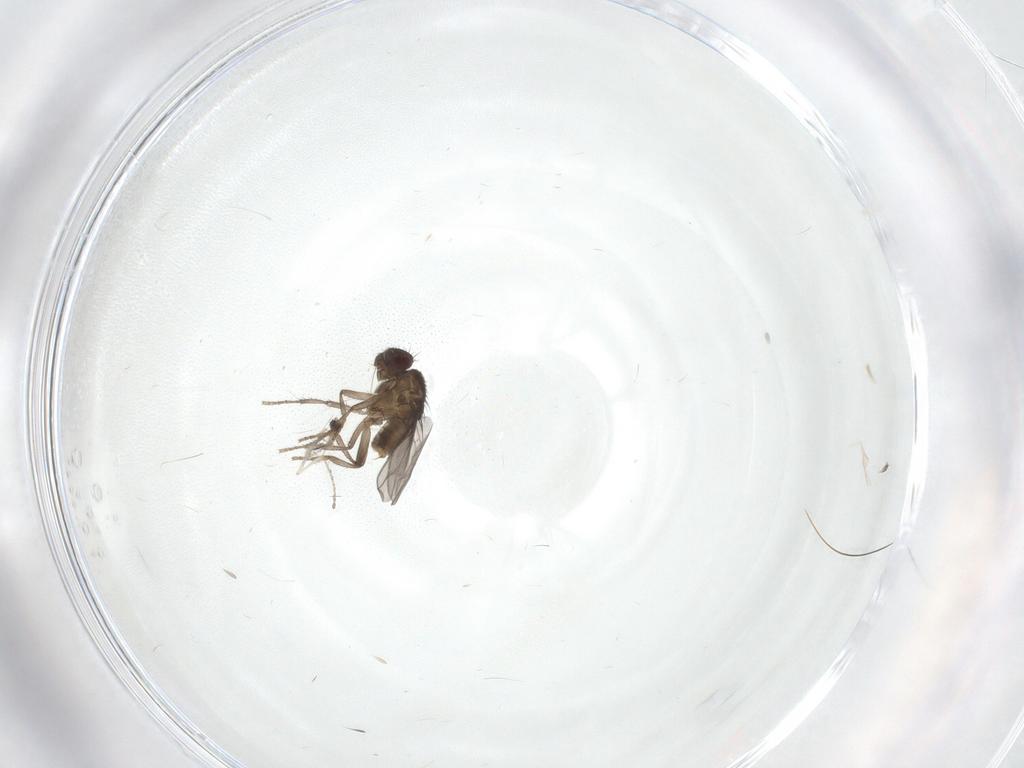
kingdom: Animalia
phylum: Arthropoda
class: Insecta
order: Diptera
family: Sphaeroceridae
